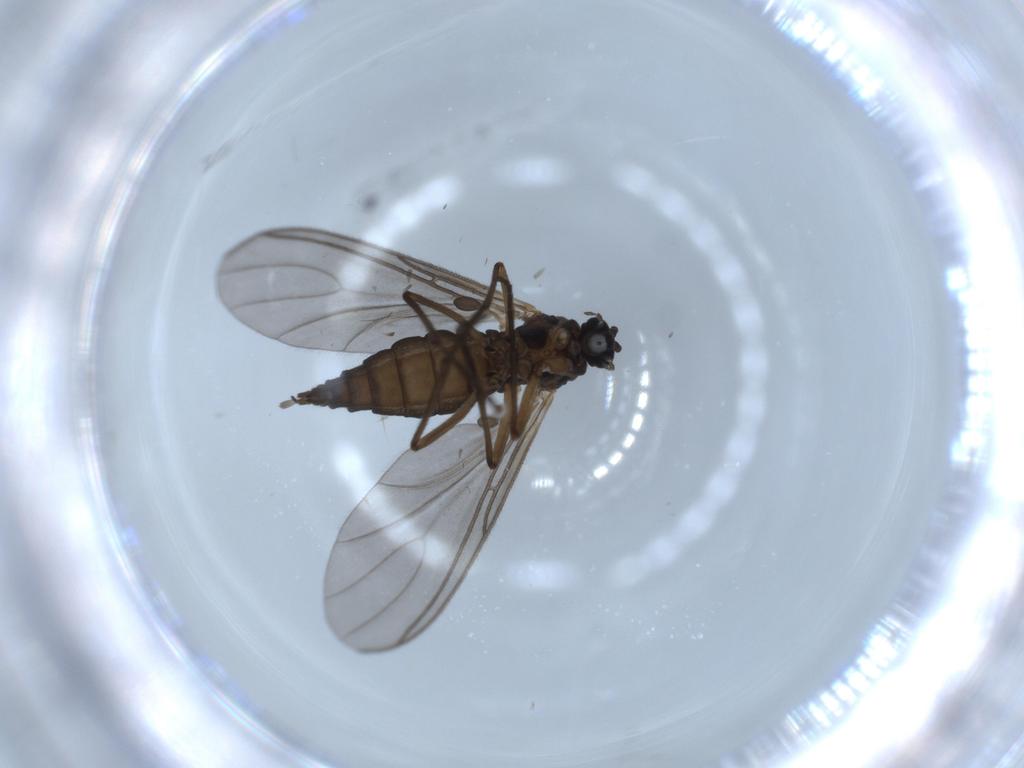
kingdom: Animalia
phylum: Arthropoda
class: Insecta
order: Diptera
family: Sciaridae
